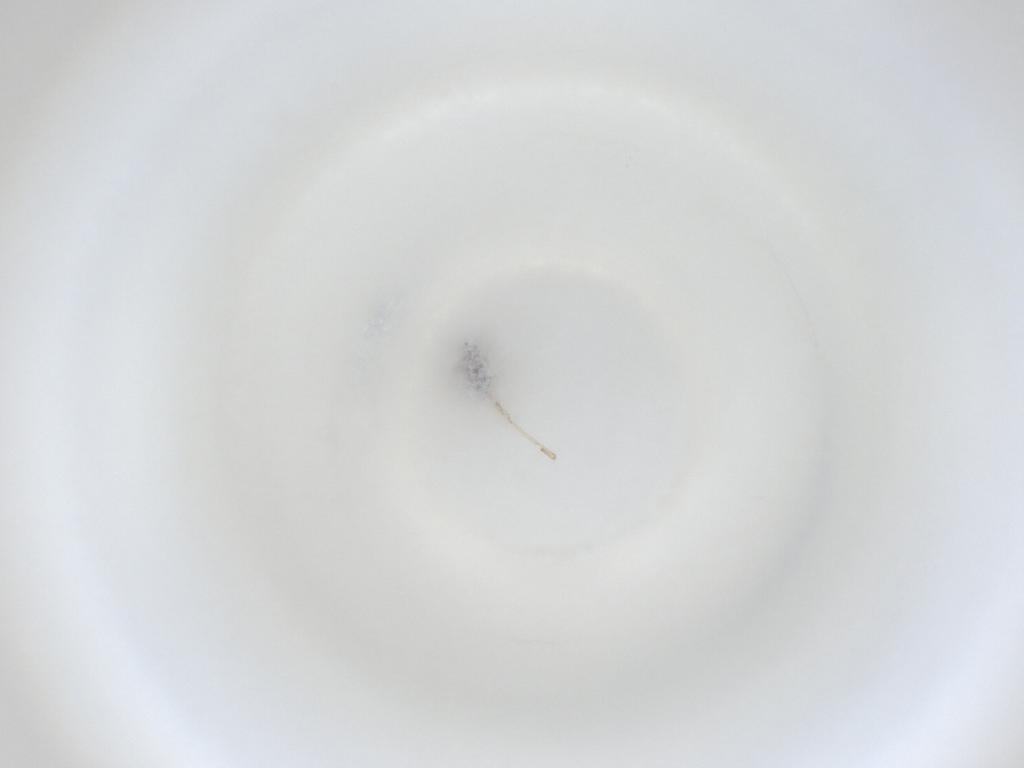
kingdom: Animalia
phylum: Arthropoda
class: Insecta
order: Diptera
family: Cecidomyiidae
